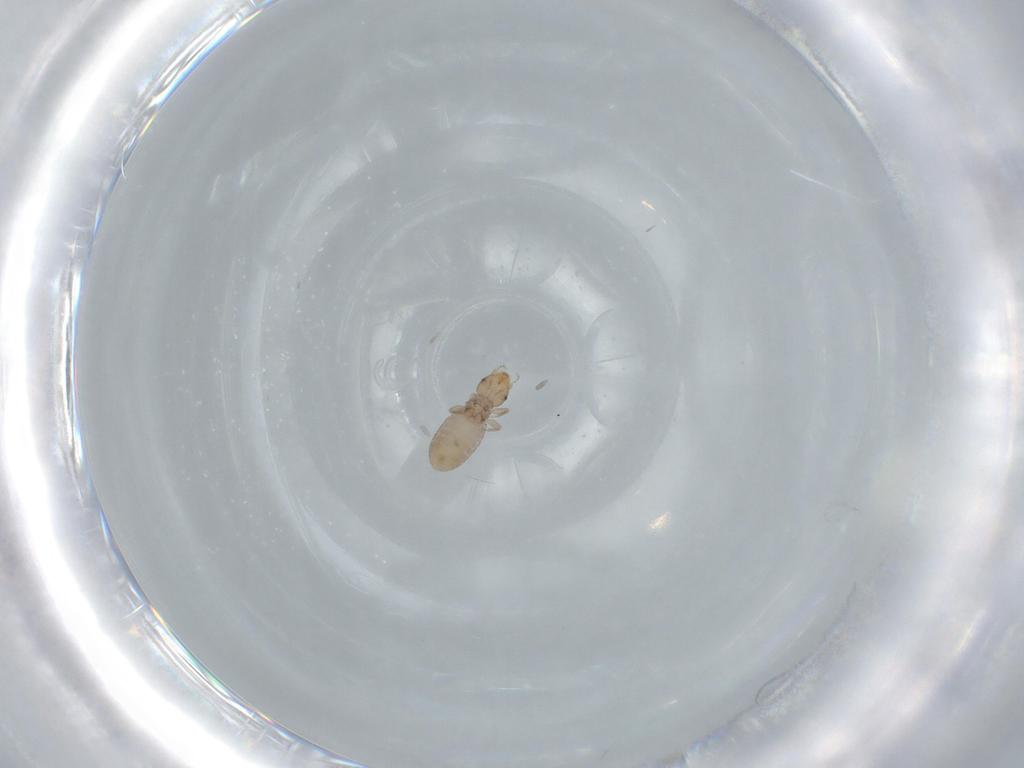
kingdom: Animalia
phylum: Arthropoda
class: Insecta
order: Psocodea
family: Liposcelididae
